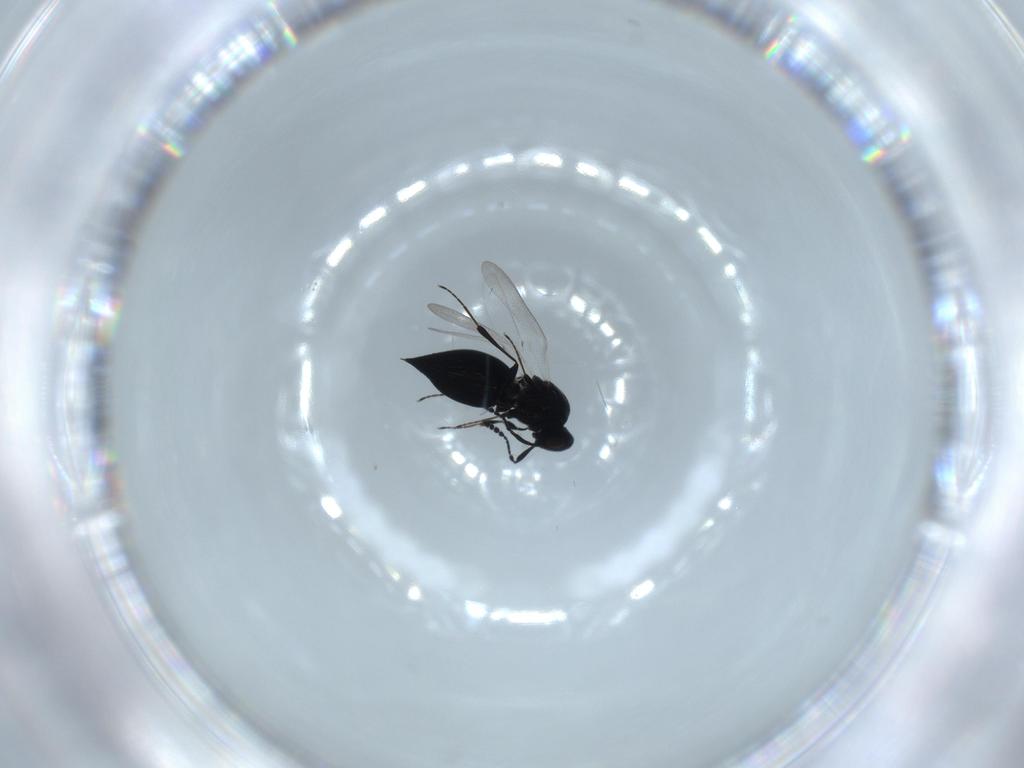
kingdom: Animalia
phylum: Arthropoda
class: Insecta
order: Hymenoptera
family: Platygastridae
